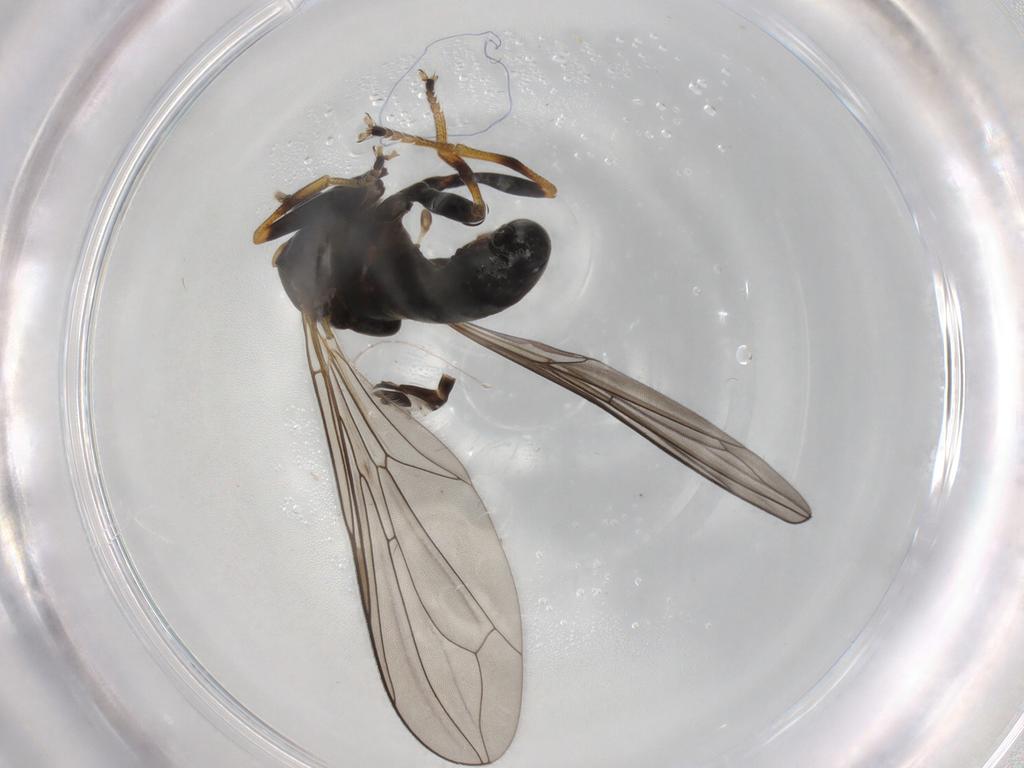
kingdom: Animalia
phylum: Arthropoda
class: Insecta
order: Diptera
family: Pipunculidae
